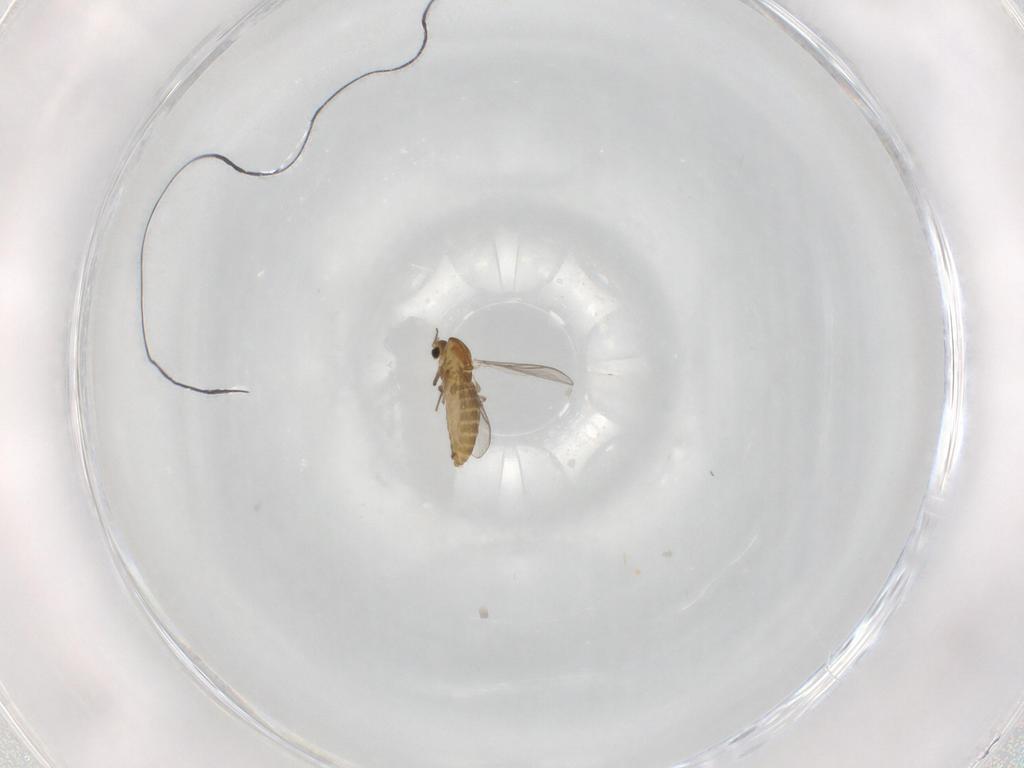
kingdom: Animalia
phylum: Arthropoda
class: Insecta
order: Diptera
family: Chironomidae
